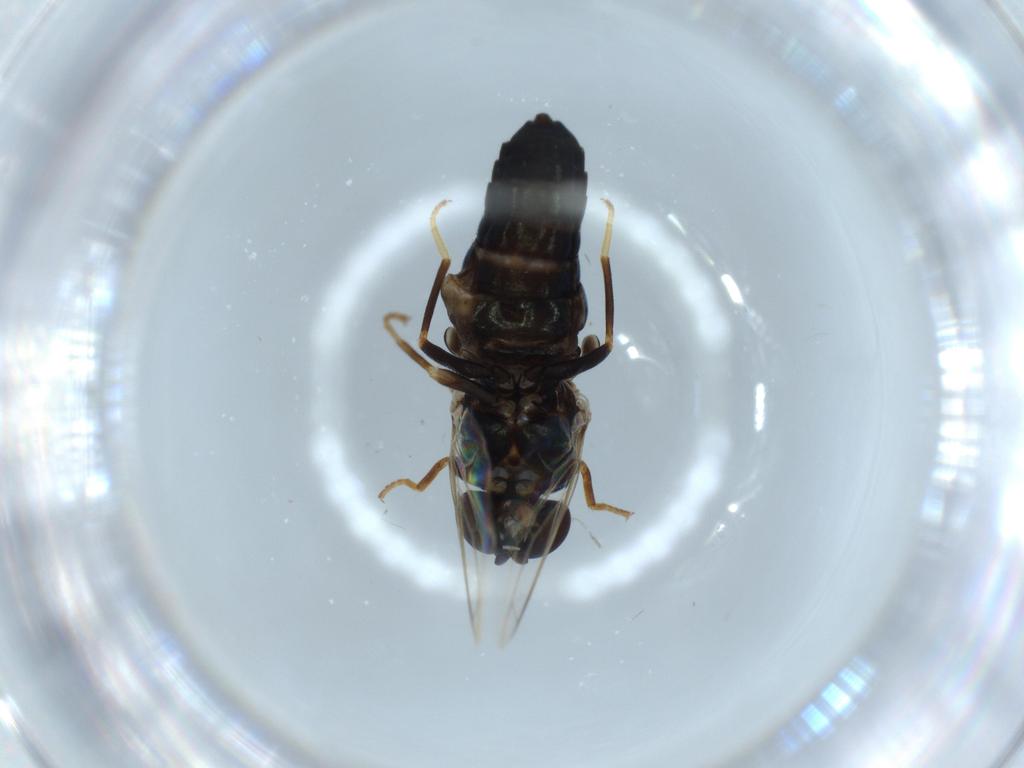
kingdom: Animalia
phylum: Arthropoda
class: Insecta
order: Diptera
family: Scenopinidae
